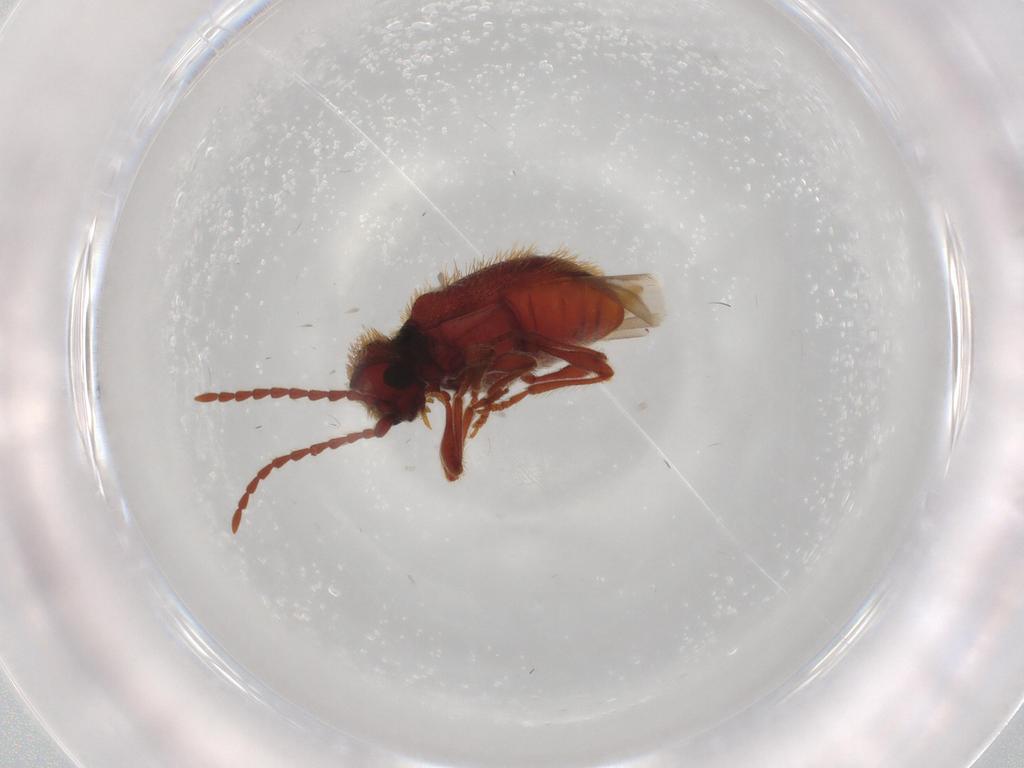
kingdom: Animalia
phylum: Arthropoda
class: Insecta
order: Coleoptera
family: Ptinidae
